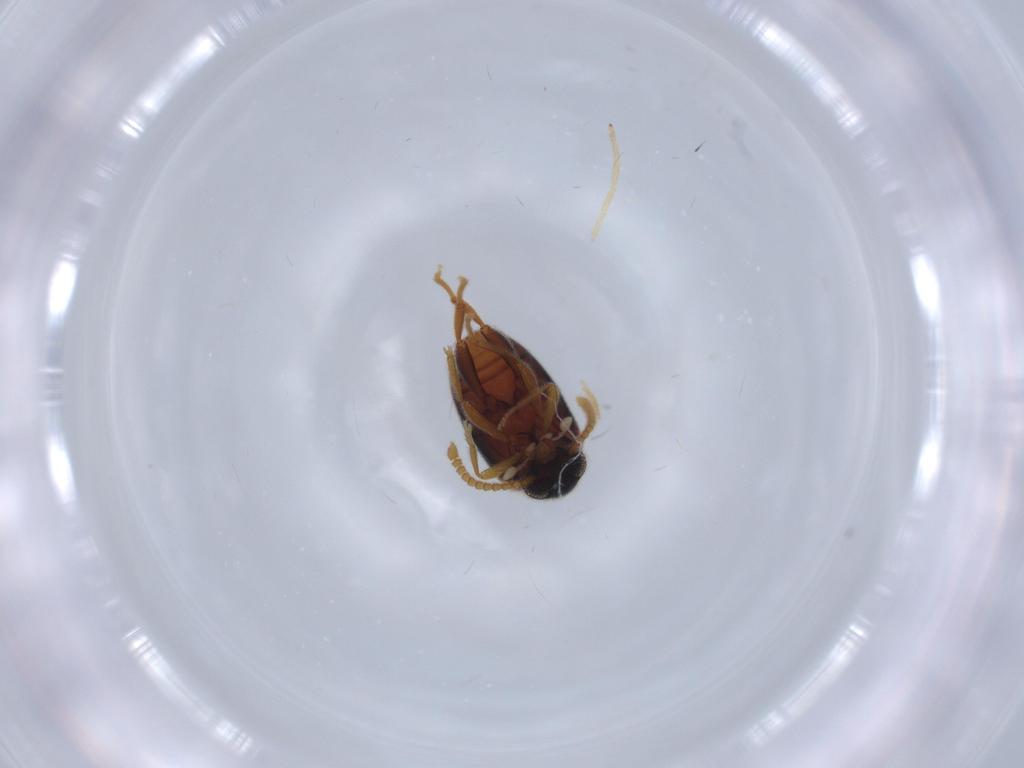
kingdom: Animalia
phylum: Arthropoda
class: Insecta
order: Coleoptera
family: Aderidae
